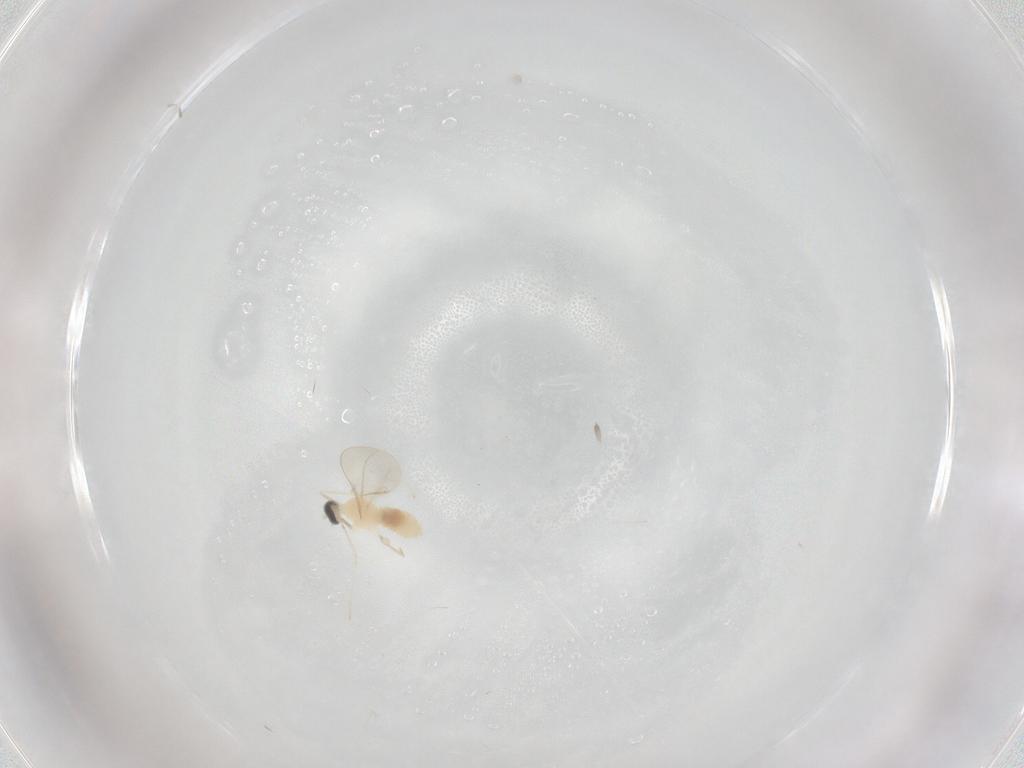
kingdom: Animalia
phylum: Arthropoda
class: Insecta
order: Diptera
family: Cecidomyiidae
